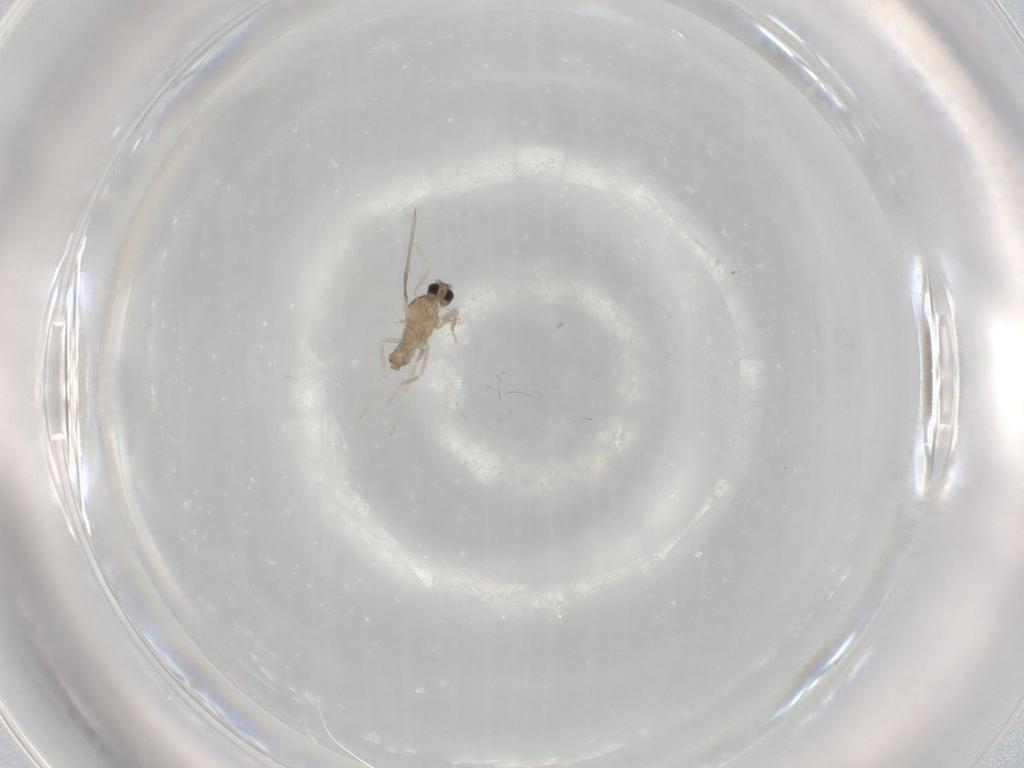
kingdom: Animalia
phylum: Arthropoda
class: Insecta
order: Diptera
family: Cecidomyiidae
